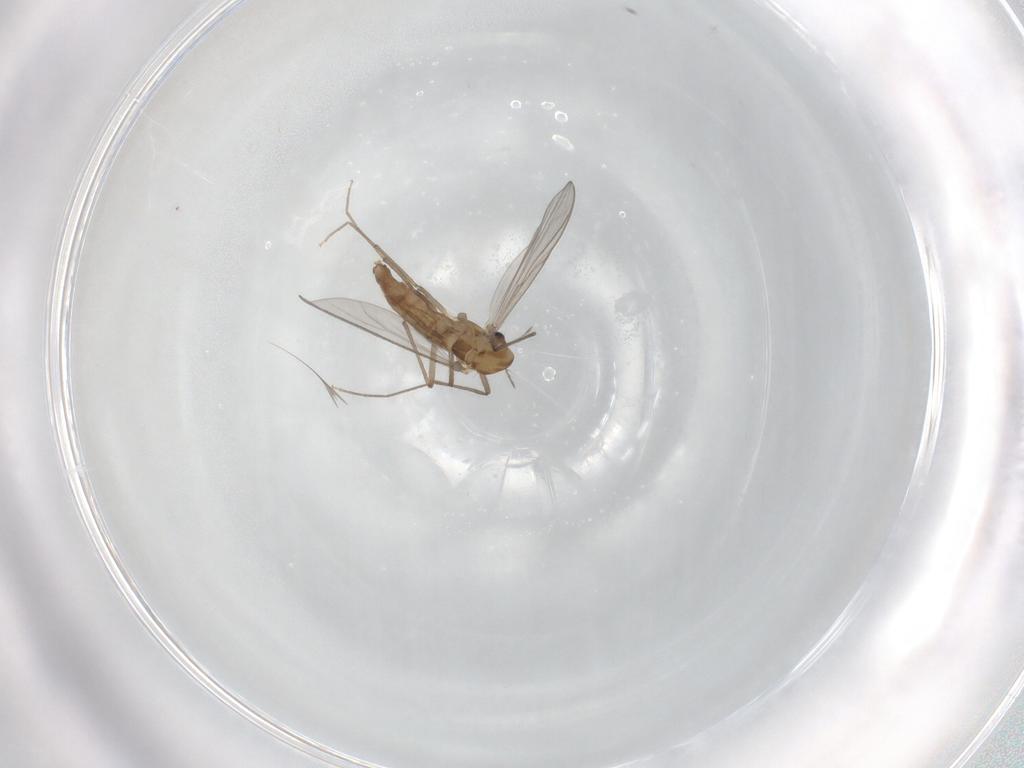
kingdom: Animalia
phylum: Arthropoda
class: Insecta
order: Diptera
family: Chironomidae
